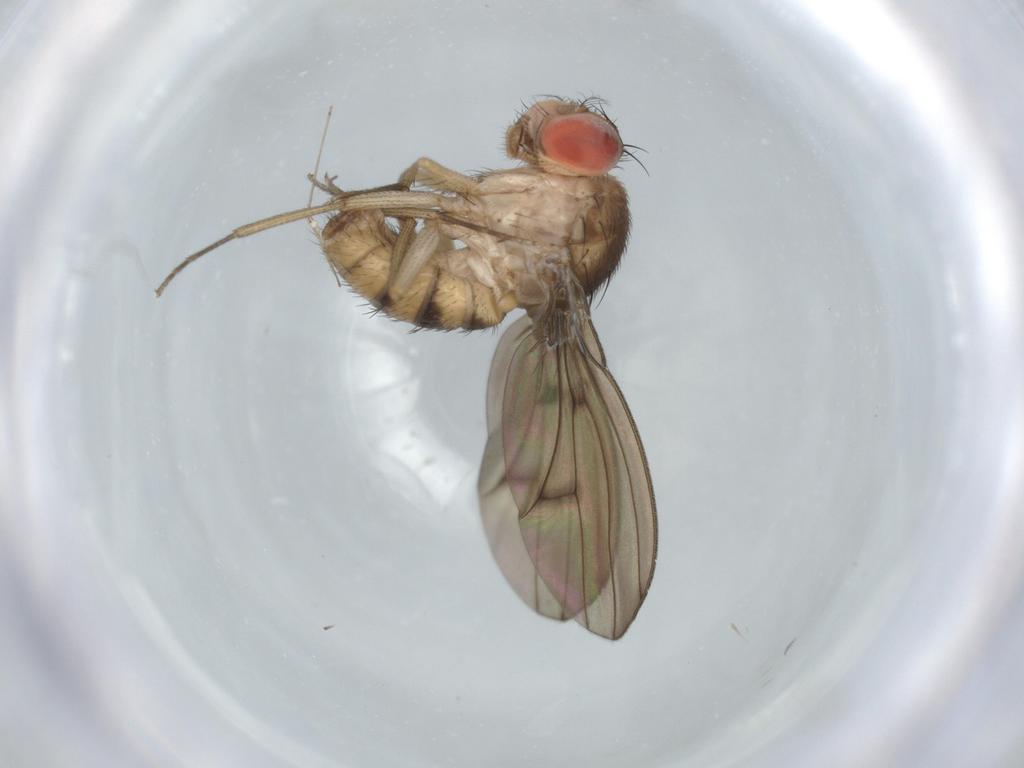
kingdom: Animalia
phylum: Arthropoda
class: Insecta
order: Diptera
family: Drosophilidae
